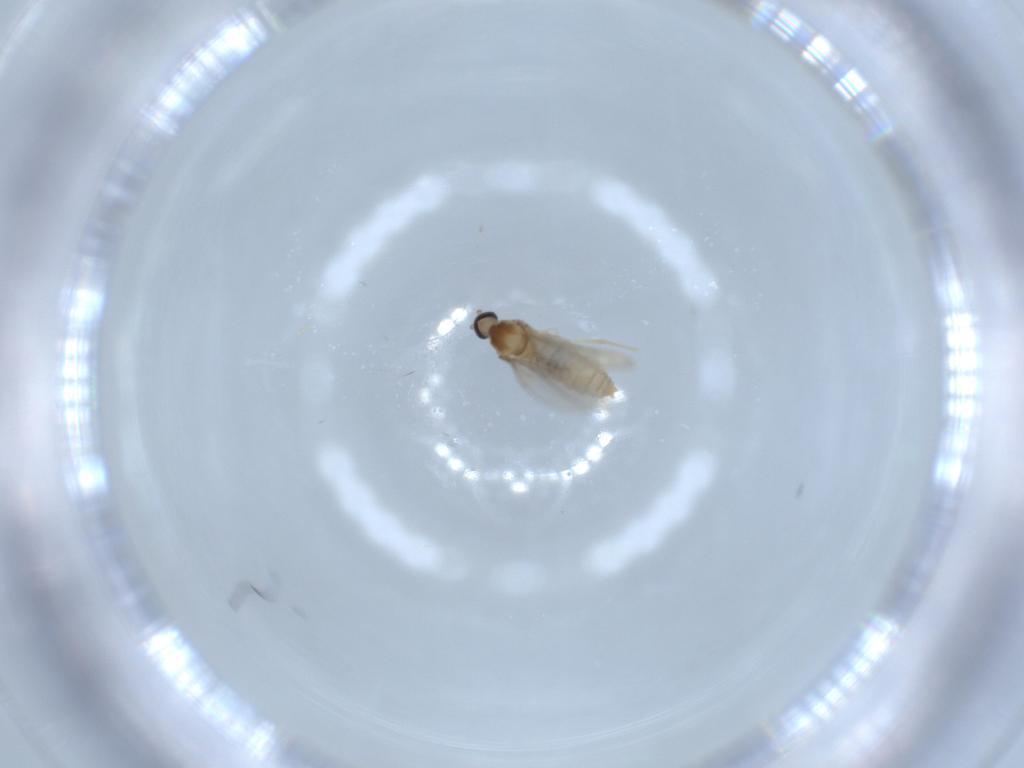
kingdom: Animalia
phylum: Arthropoda
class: Insecta
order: Diptera
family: Cecidomyiidae
